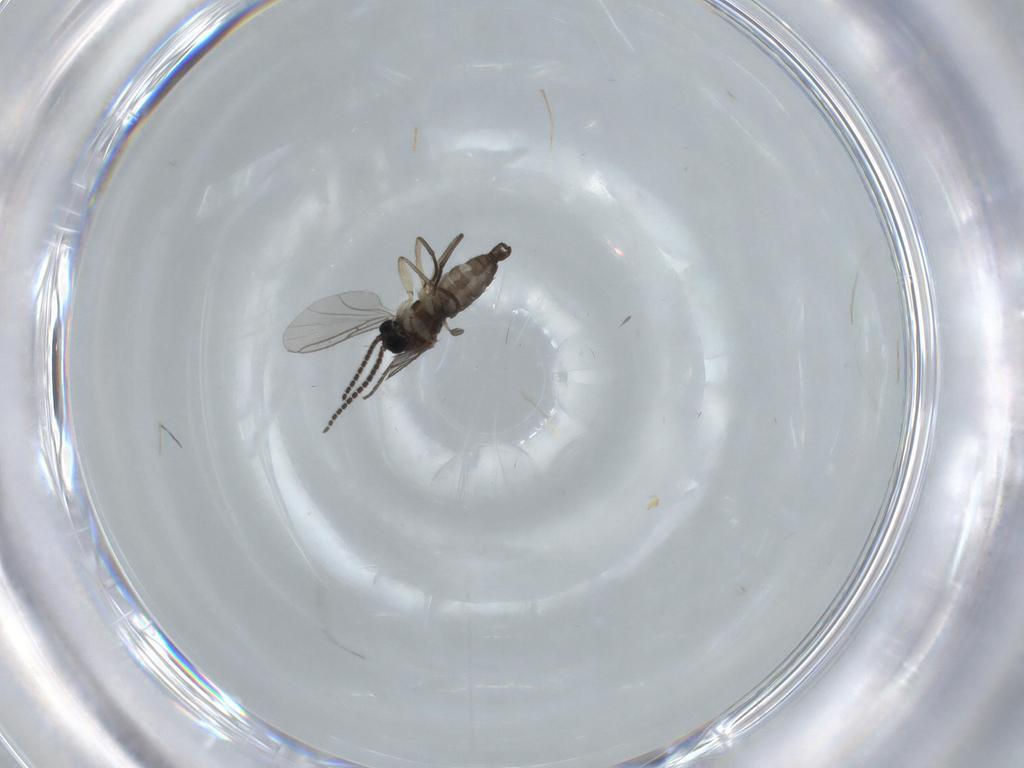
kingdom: Animalia
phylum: Arthropoda
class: Insecta
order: Diptera
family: Sciaridae
